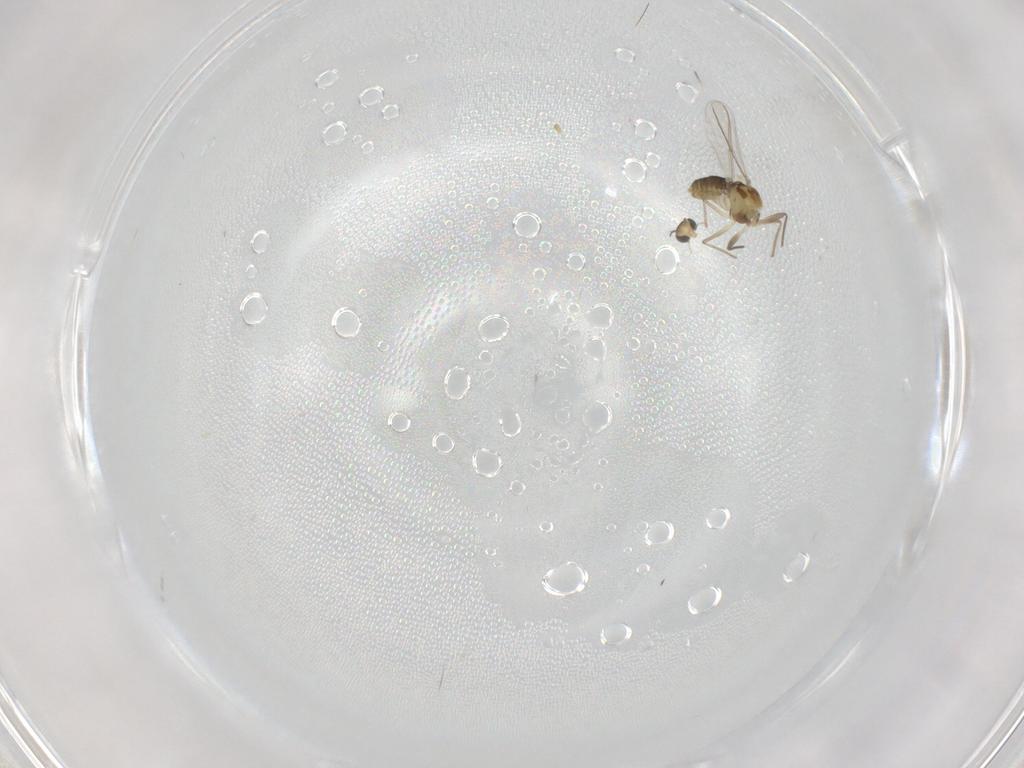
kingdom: Animalia
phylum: Arthropoda
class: Insecta
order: Diptera
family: Chironomidae
